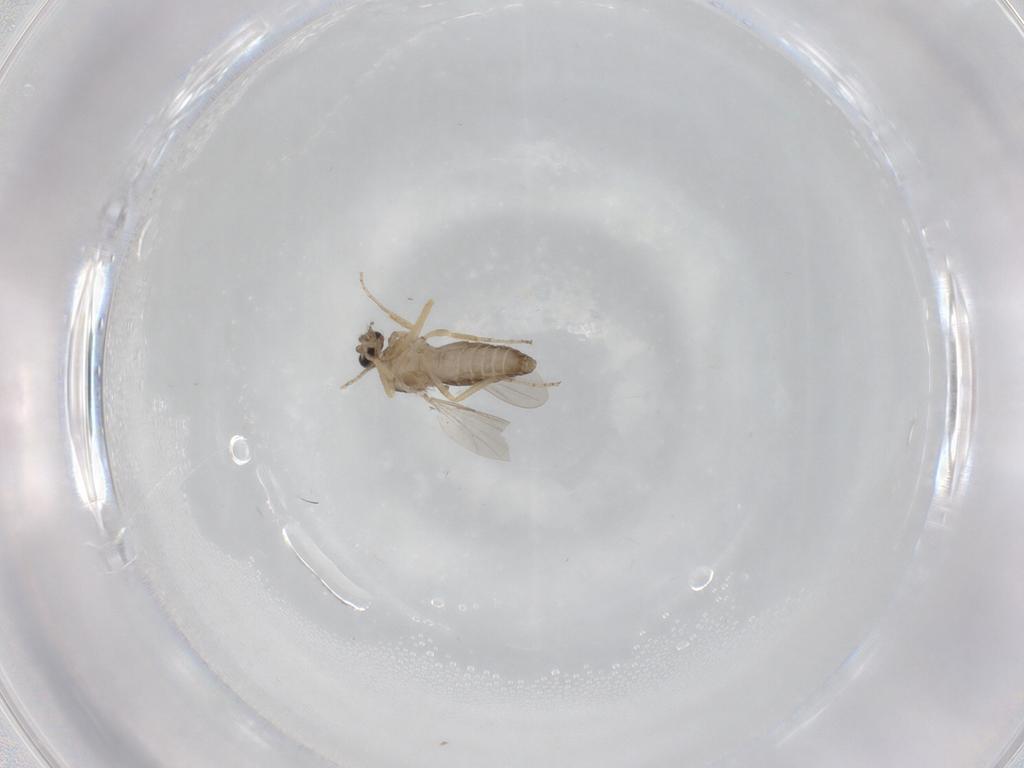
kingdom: Animalia
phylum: Arthropoda
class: Insecta
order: Diptera
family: Ceratopogonidae
